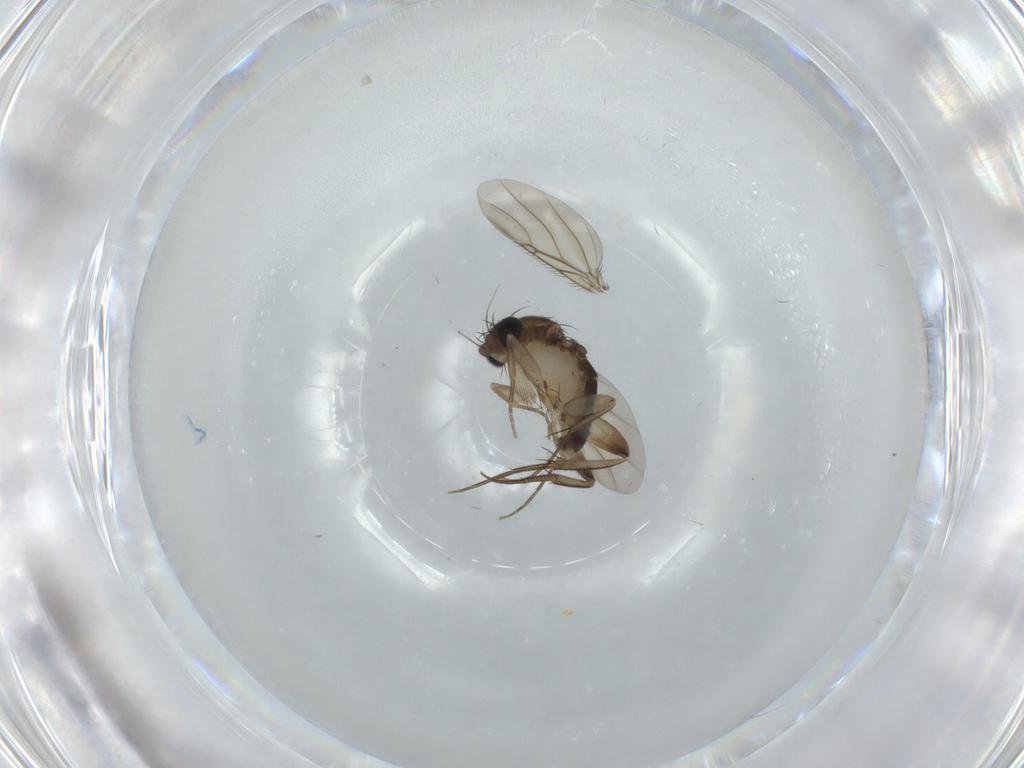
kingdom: Animalia
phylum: Arthropoda
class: Insecta
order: Diptera
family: Phoridae
